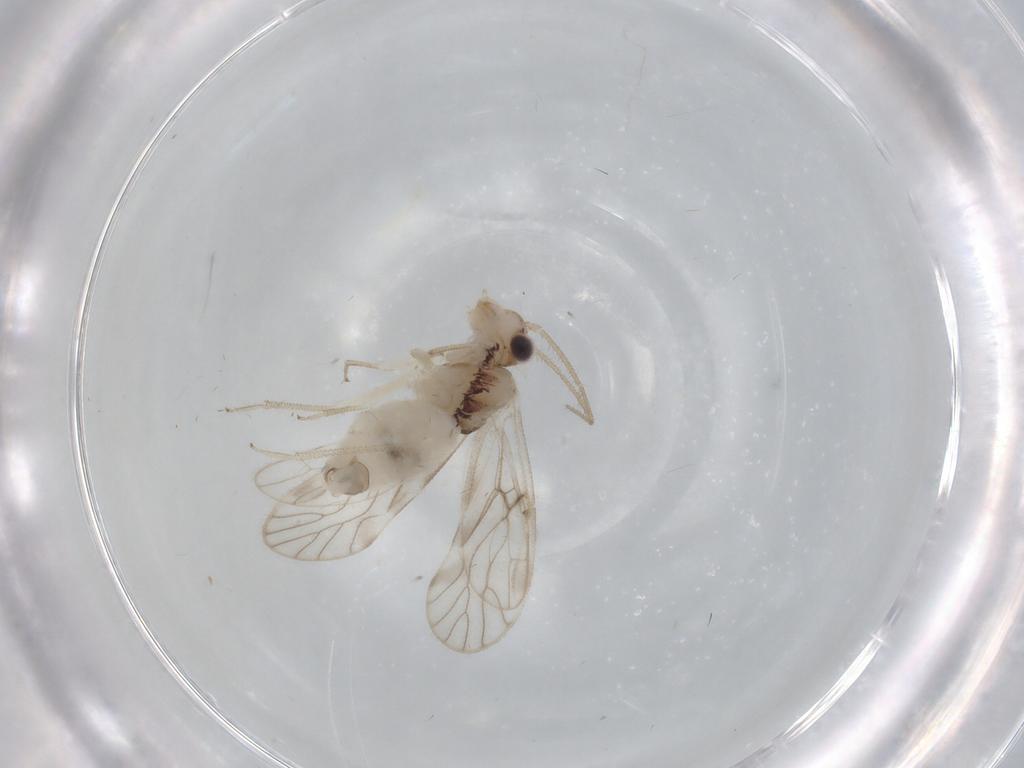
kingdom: Animalia
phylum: Arthropoda
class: Insecta
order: Psocodea
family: Caeciliusidae
